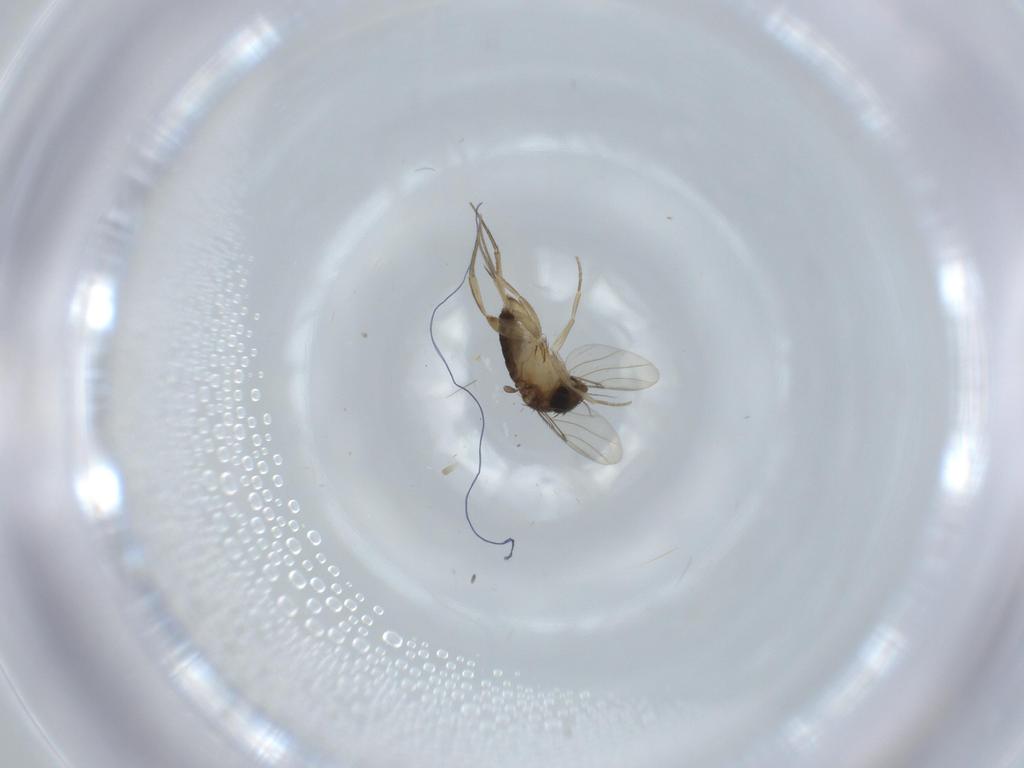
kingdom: Animalia
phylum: Arthropoda
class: Insecta
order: Diptera
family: Phoridae
